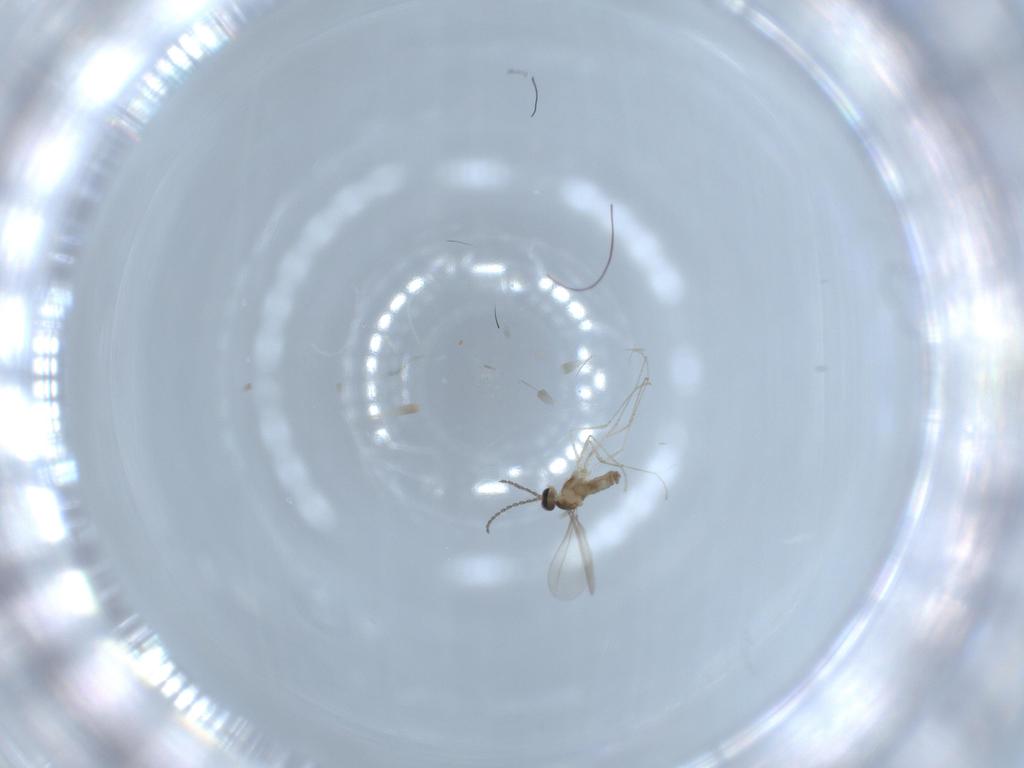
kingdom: Animalia
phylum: Arthropoda
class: Insecta
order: Diptera
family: Cecidomyiidae
